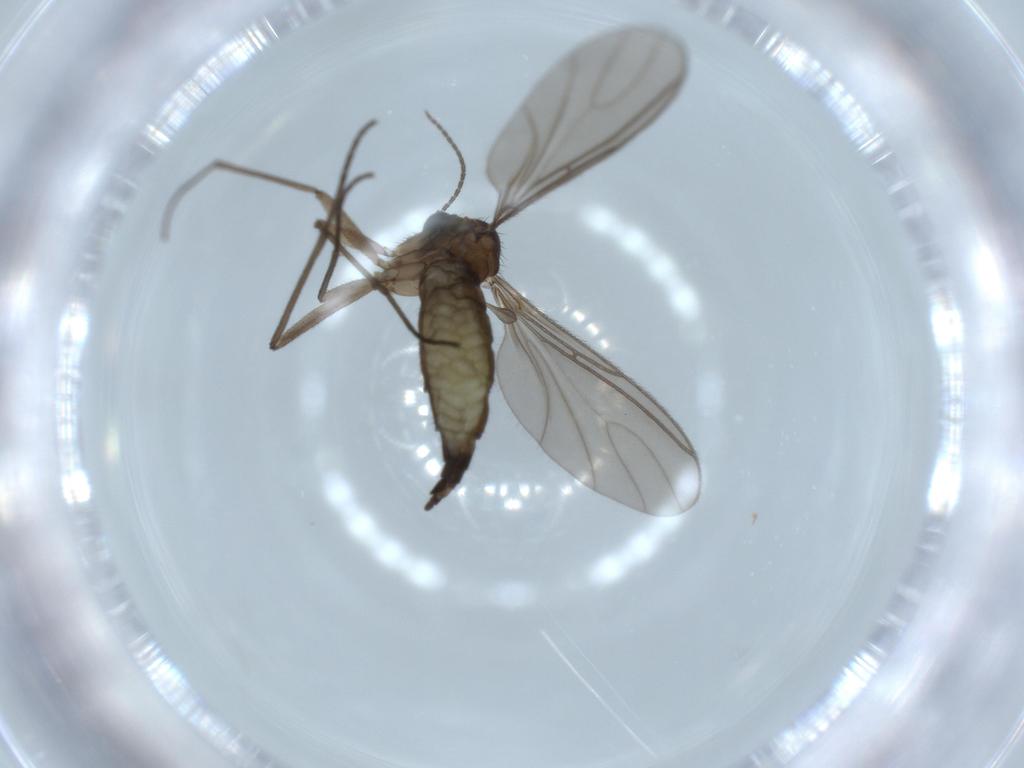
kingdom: Animalia
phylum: Arthropoda
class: Insecta
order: Diptera
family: Sciaridae
